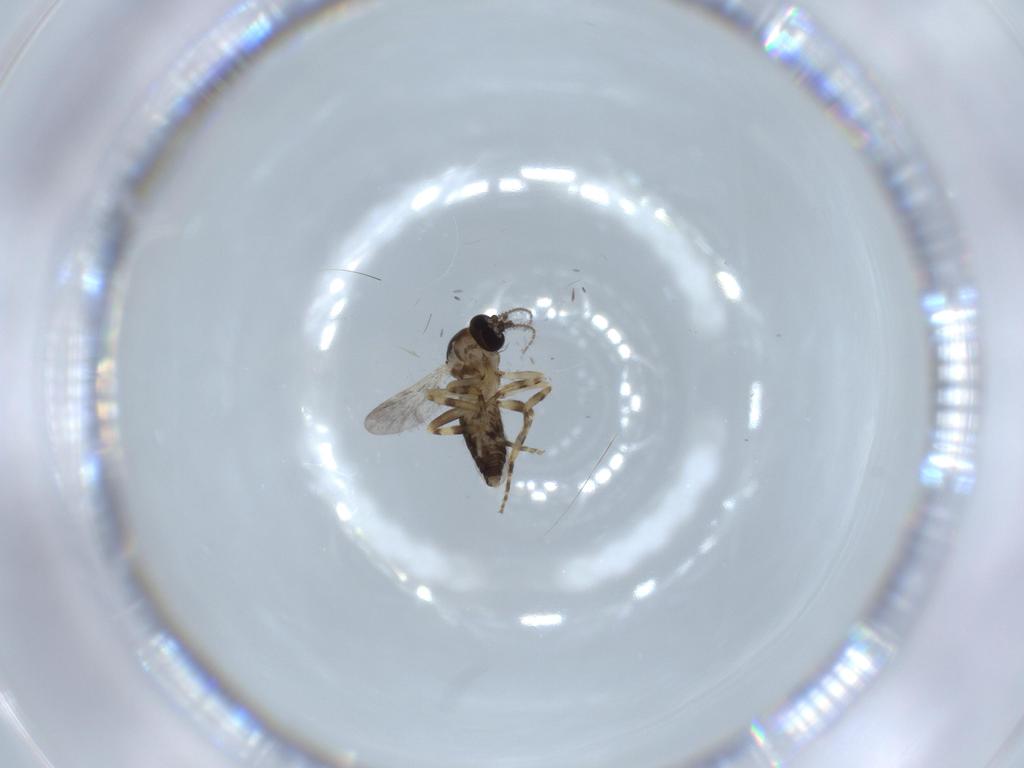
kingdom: Animalia
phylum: Arthropoda
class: Insecta
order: Diptera
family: Ceratopogonidae
